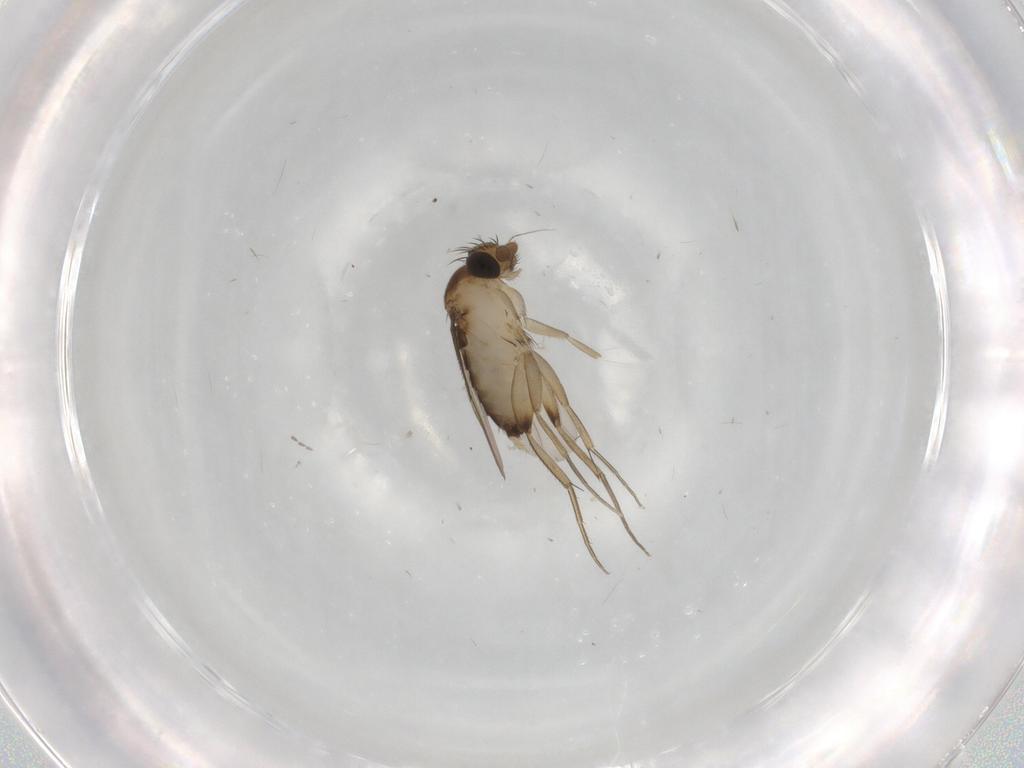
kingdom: Animalia
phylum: Arthropoda
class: Insecta
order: Diptera
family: Phoridae
